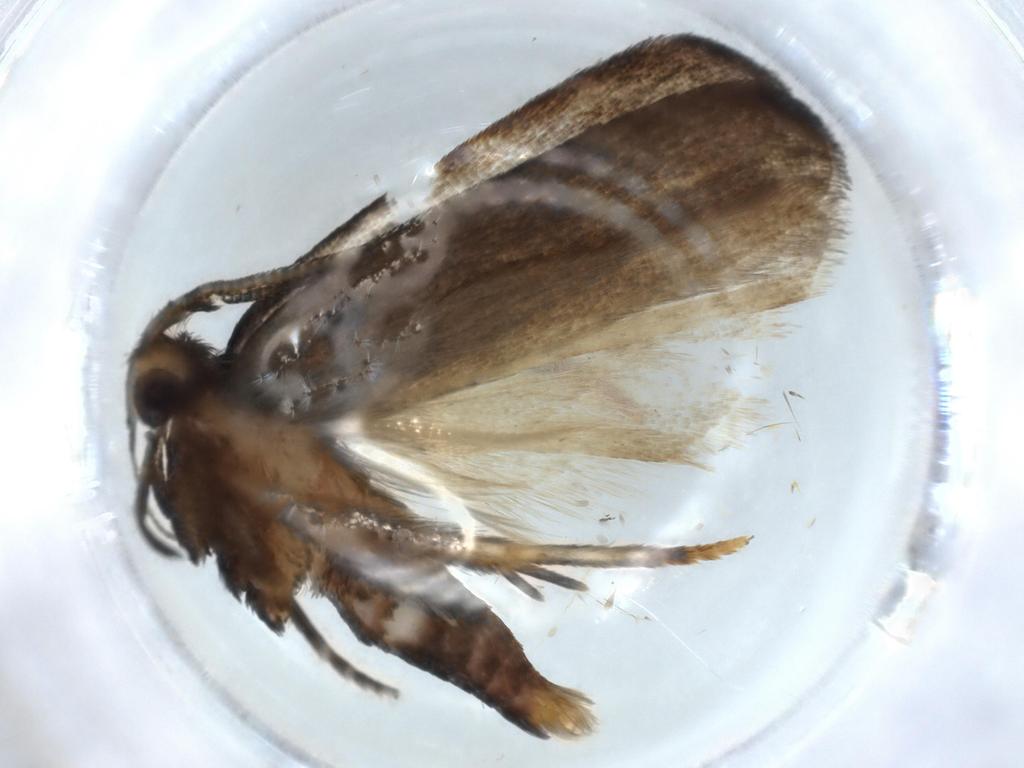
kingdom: Animalia
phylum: Arthropoda
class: Insecta
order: Lepidoptera
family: Autostichidae
